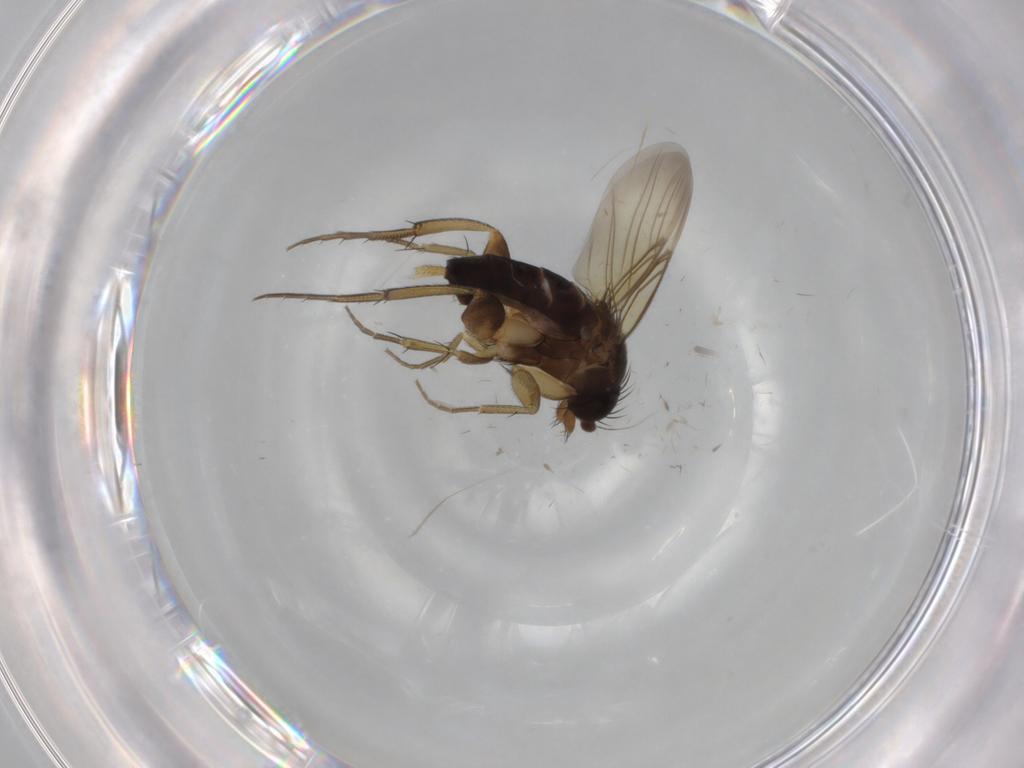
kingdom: Animalia
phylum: Arthropoda
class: Insecta
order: Diptera
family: Phoridae
